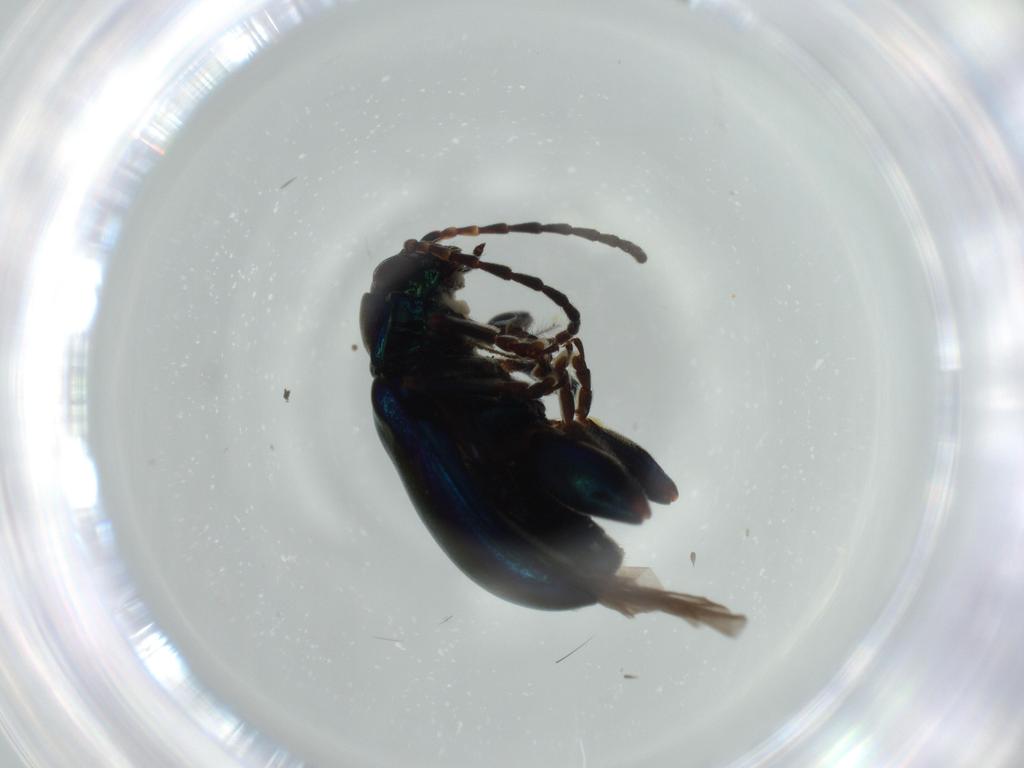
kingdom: Animalia
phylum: Arthropoda
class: Insecta
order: Coleoptera
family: Chrysomelidae
